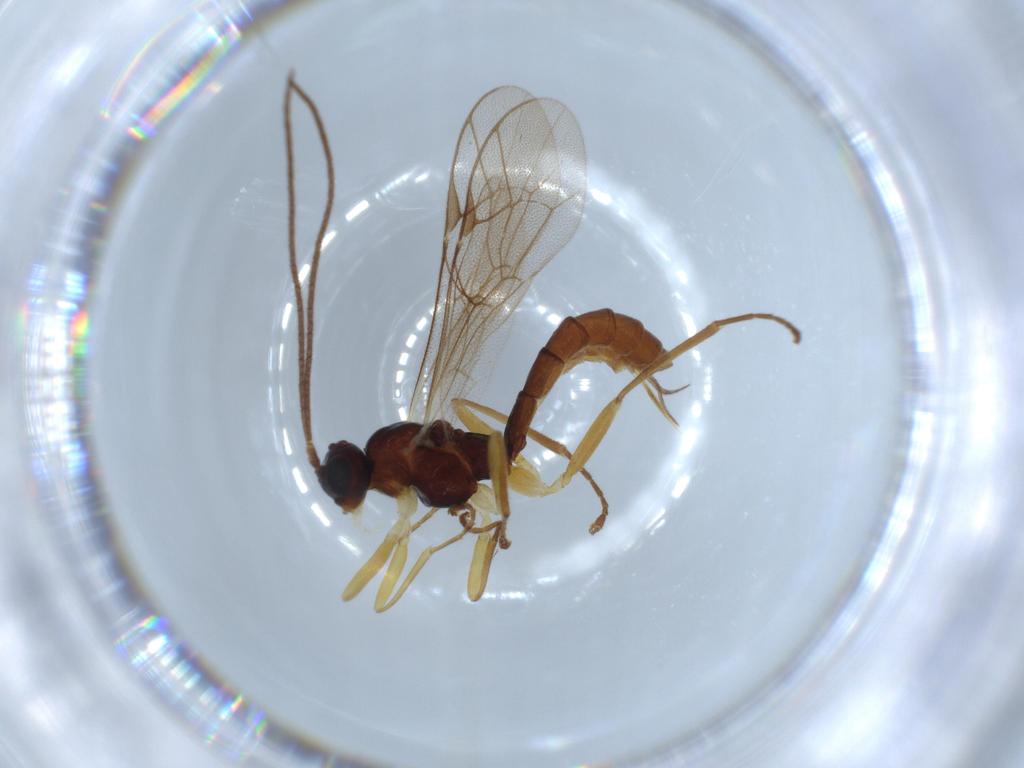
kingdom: Animalia
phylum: Arthropoda
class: Insecta
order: Hymenoptera
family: Ichneumonidae
